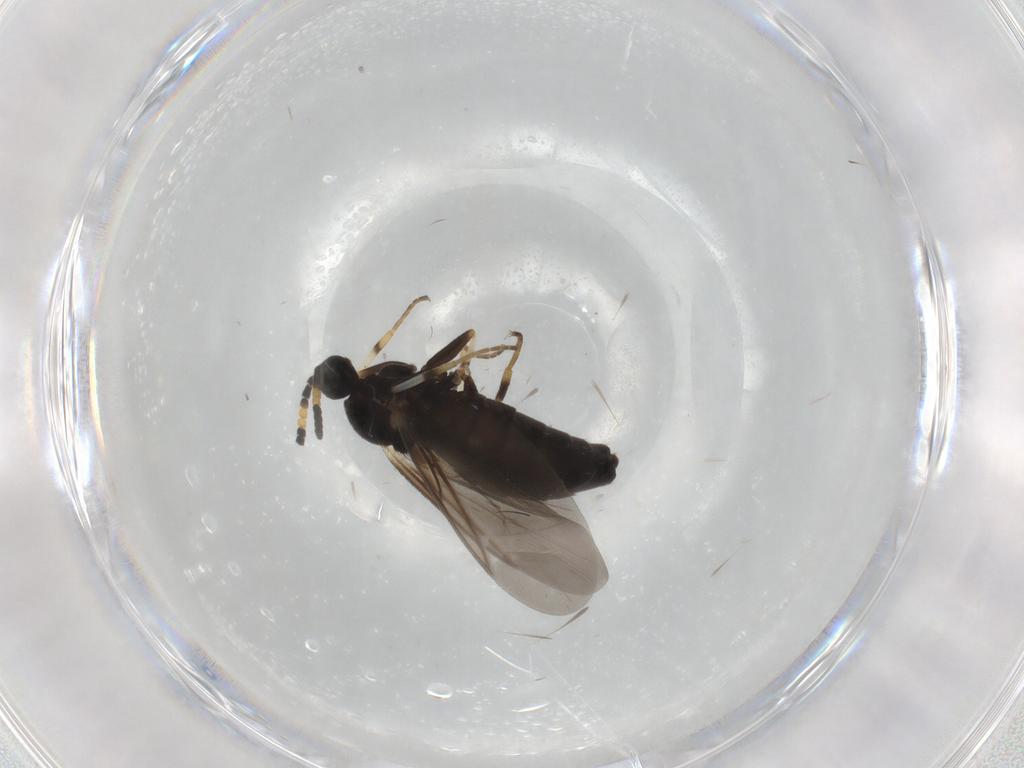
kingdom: Animalia
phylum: Arthropoda
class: Insecta
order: Diptera
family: Scatopsidae
